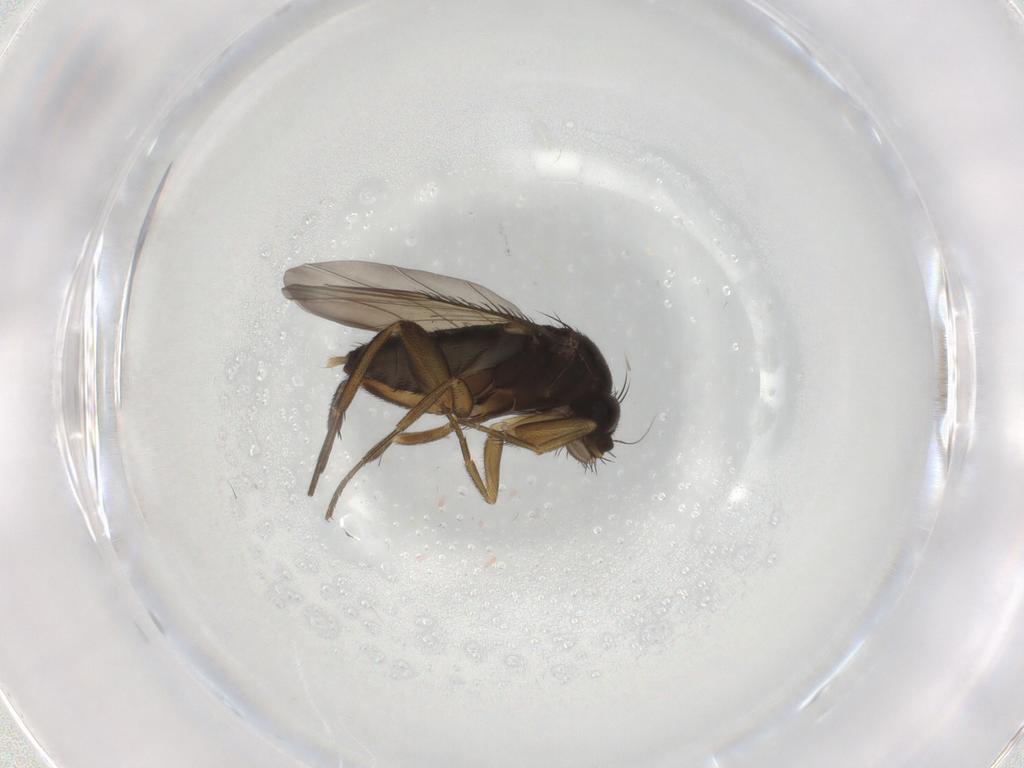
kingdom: Animalia
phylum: Arthropoda
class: Insecta
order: Diptera
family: Phoridae
